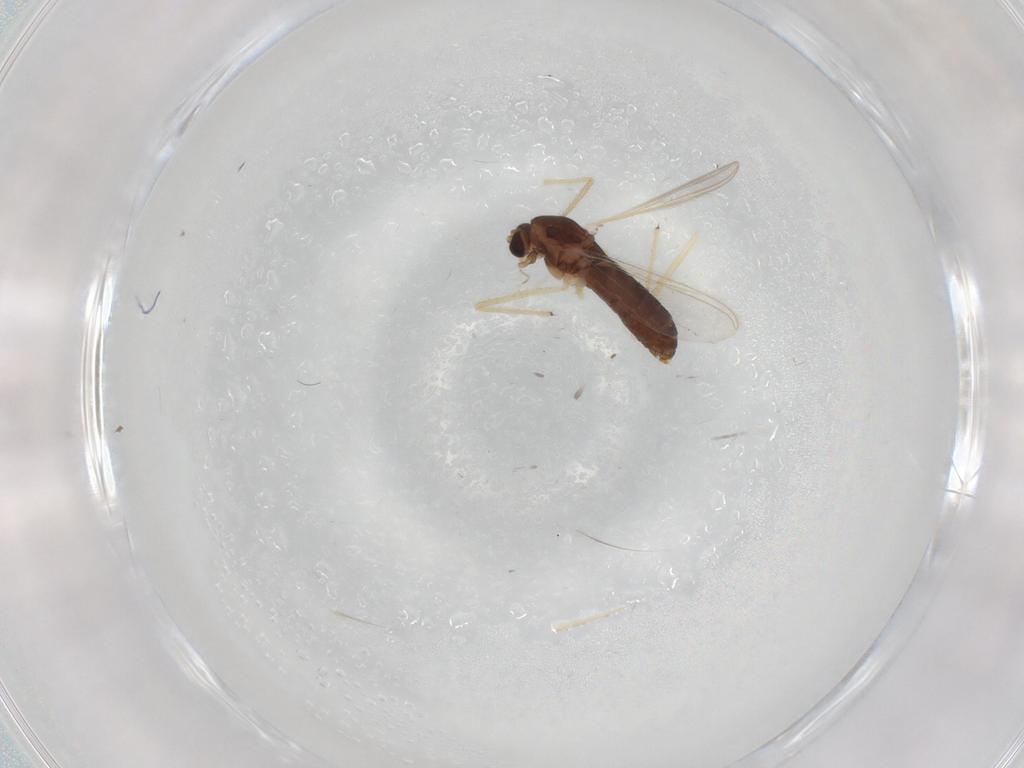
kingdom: Animalia
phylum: Arthropoda
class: Insecta
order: Diptera
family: Chironomidae
